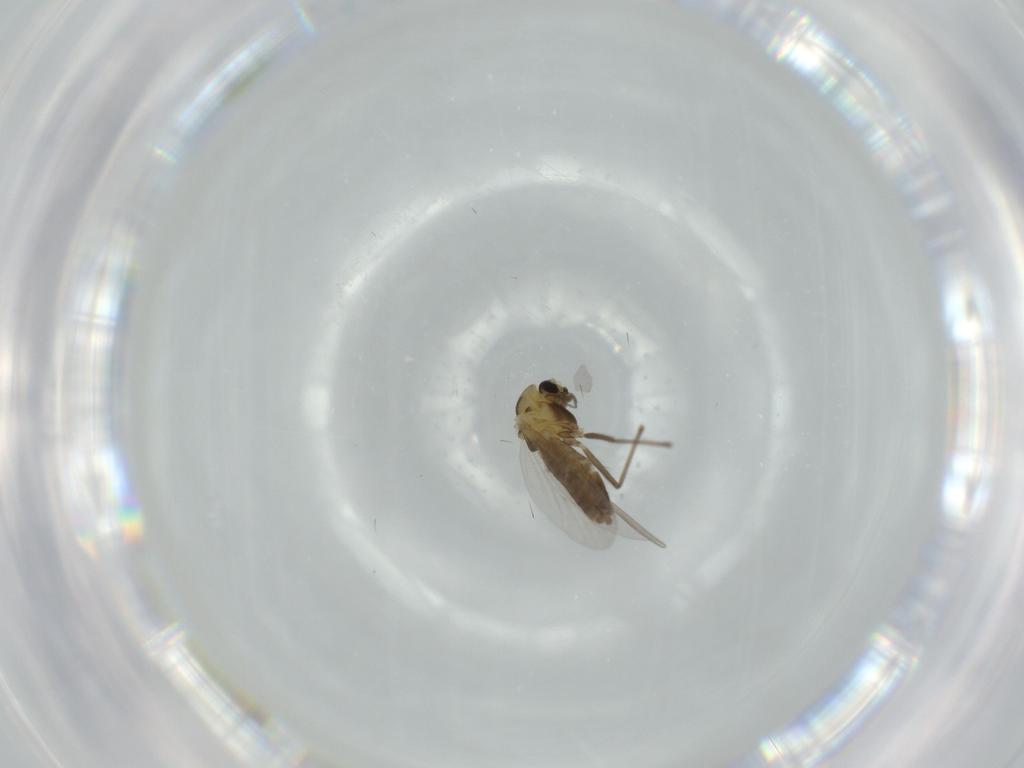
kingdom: Animalia
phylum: Arthropoda
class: Insecta
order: Diptera
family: Chironomidae
